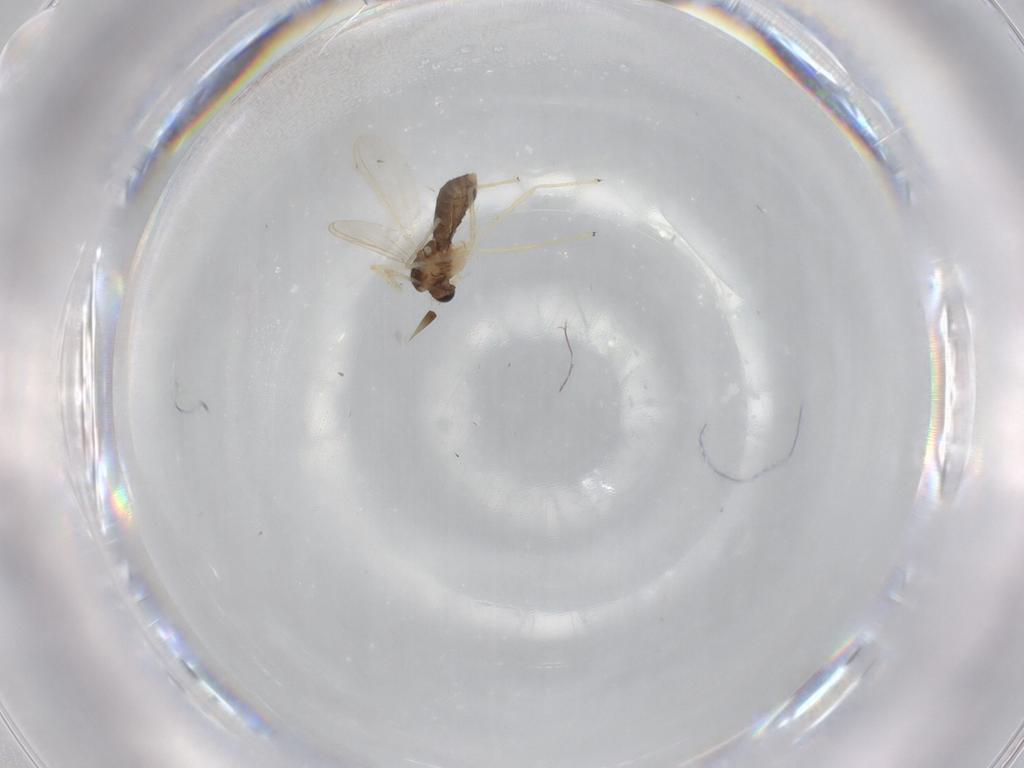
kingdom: Animalia
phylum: Arthropoda
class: Insecta
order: Diptera
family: Chironomidae
